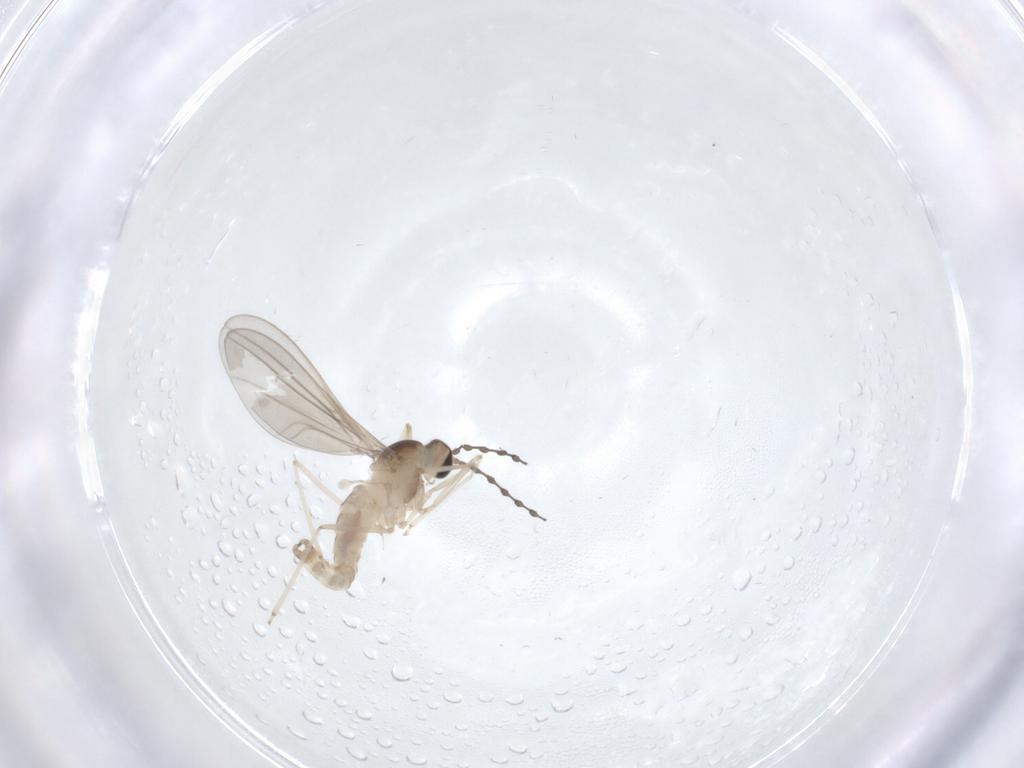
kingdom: Animalia
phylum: Arthropoda
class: Insecta
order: Diptera
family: Cecidomyiidae
